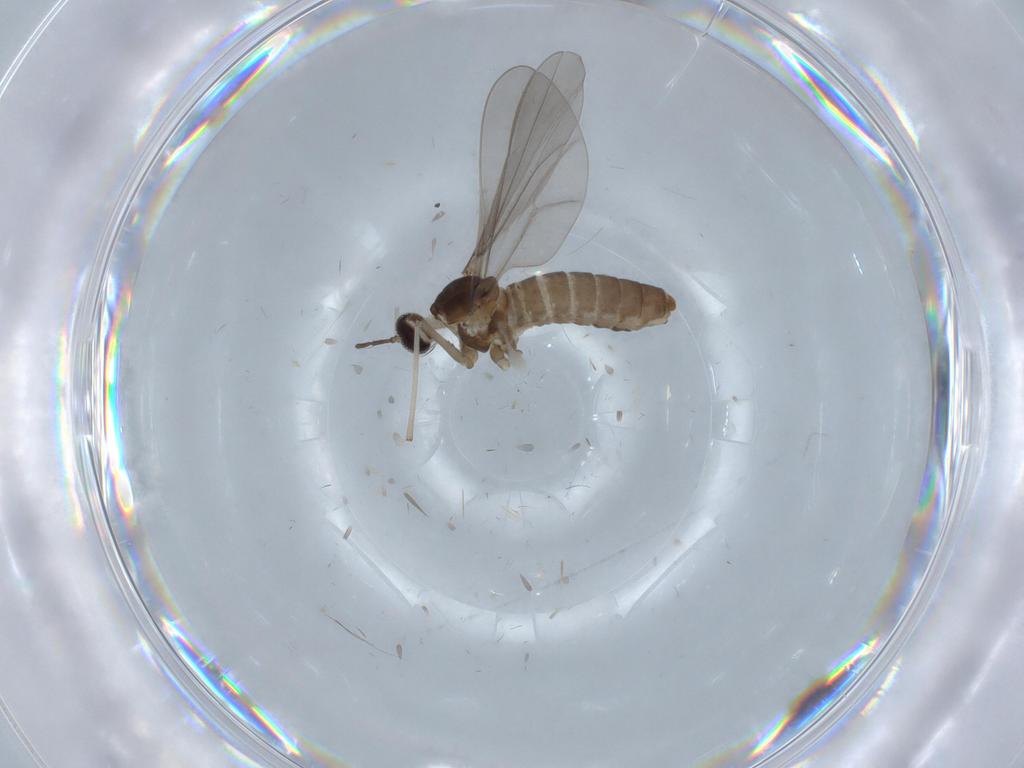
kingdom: Animalia
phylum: Arthropoda
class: Insecta
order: Diptera
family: Cecidomyiidae
